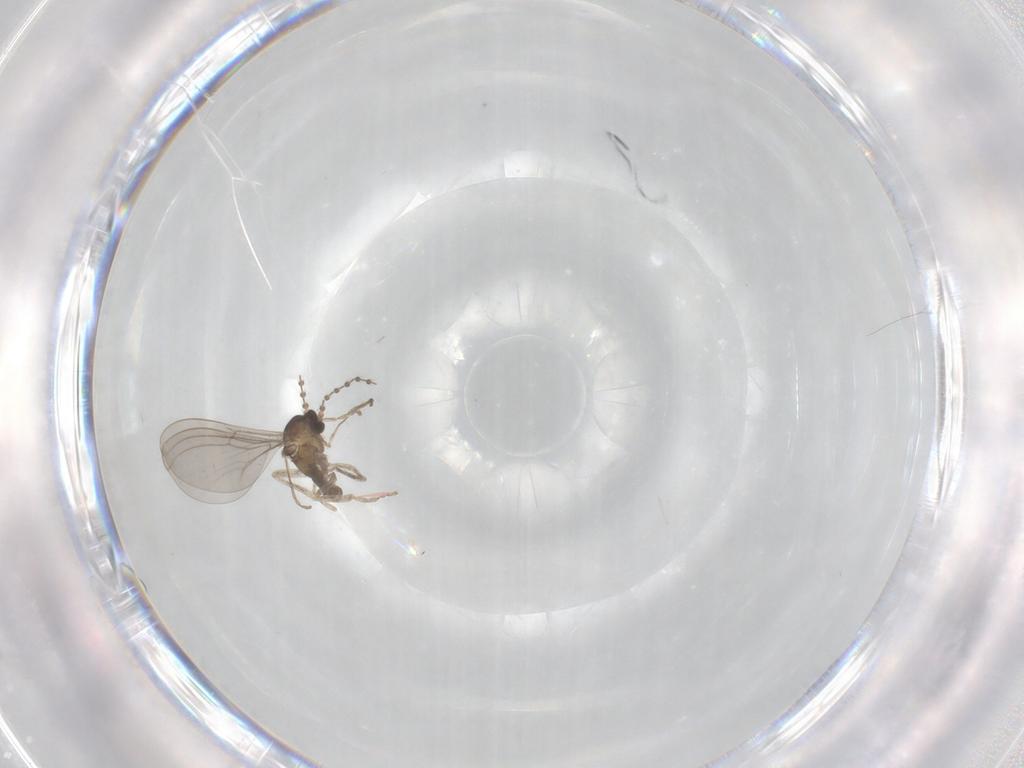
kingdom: Animalia
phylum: Arthropoda
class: Insecta
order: Diptera
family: Cecidomyiidae
